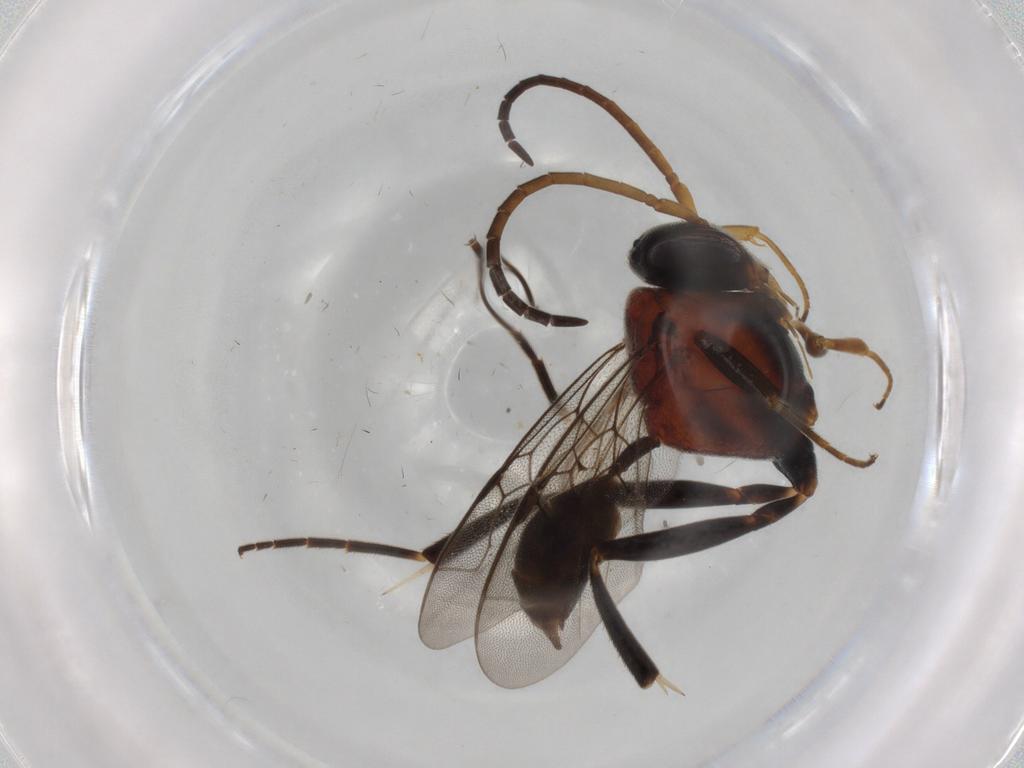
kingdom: Animalia
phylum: Arthropoda
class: Insecta
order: Hymenoptera
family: Evaniidae
